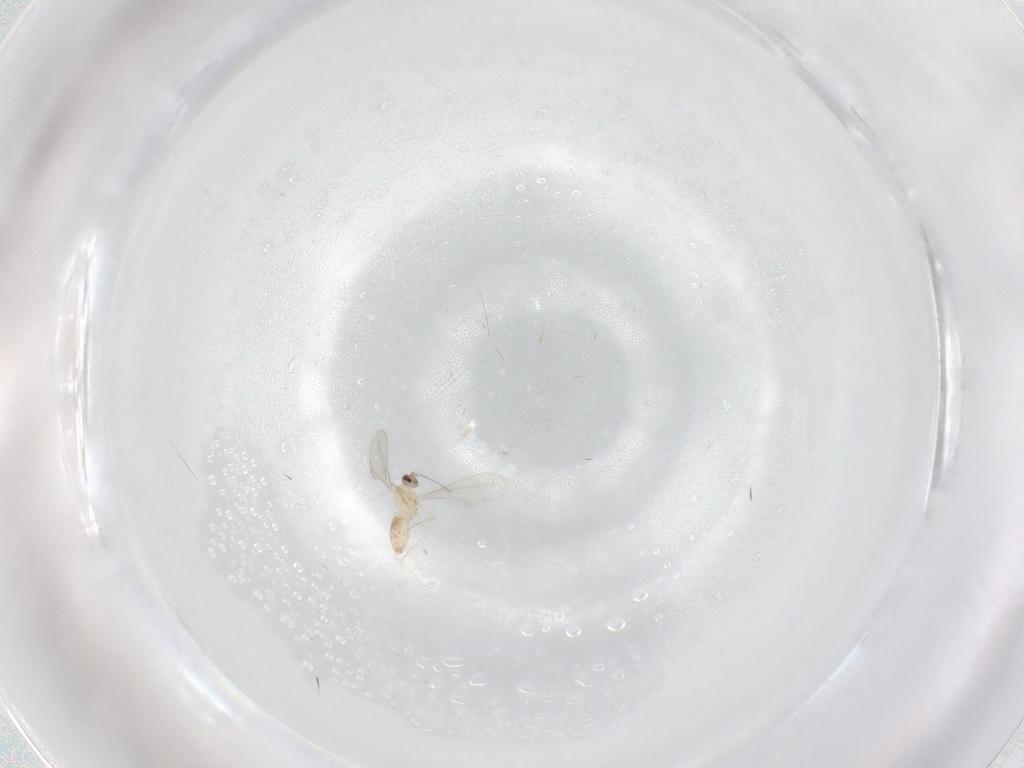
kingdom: Animalia
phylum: Arthropoda
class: Insecta
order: Diptera
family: Cecidomyiidae
